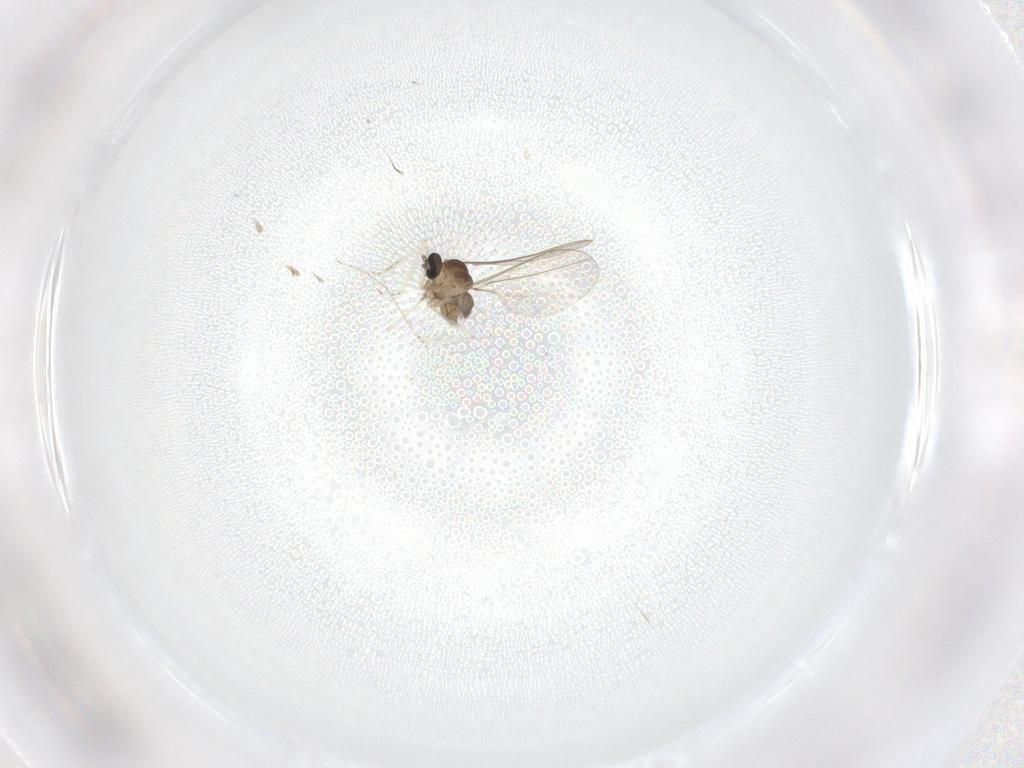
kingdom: Animalia
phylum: Arthropoda
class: Insecta
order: Diptera
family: Cecidomyiidae
